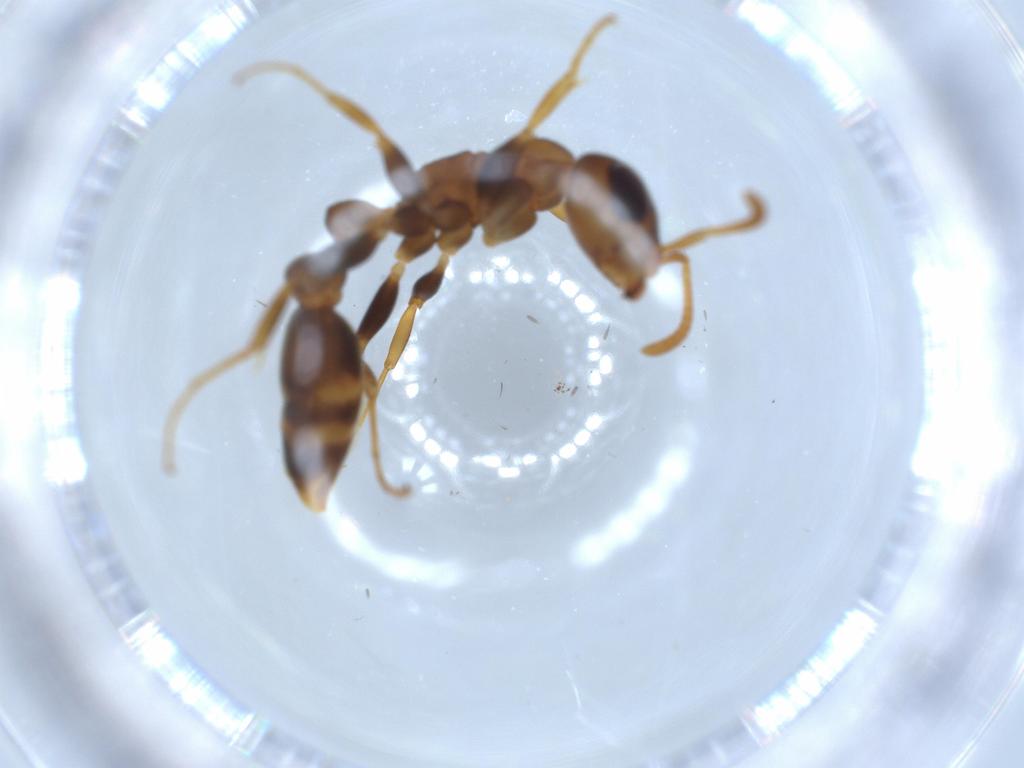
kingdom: Animalia
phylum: Arthropoda
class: Insecta
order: Hymenoptera
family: Formicidae
